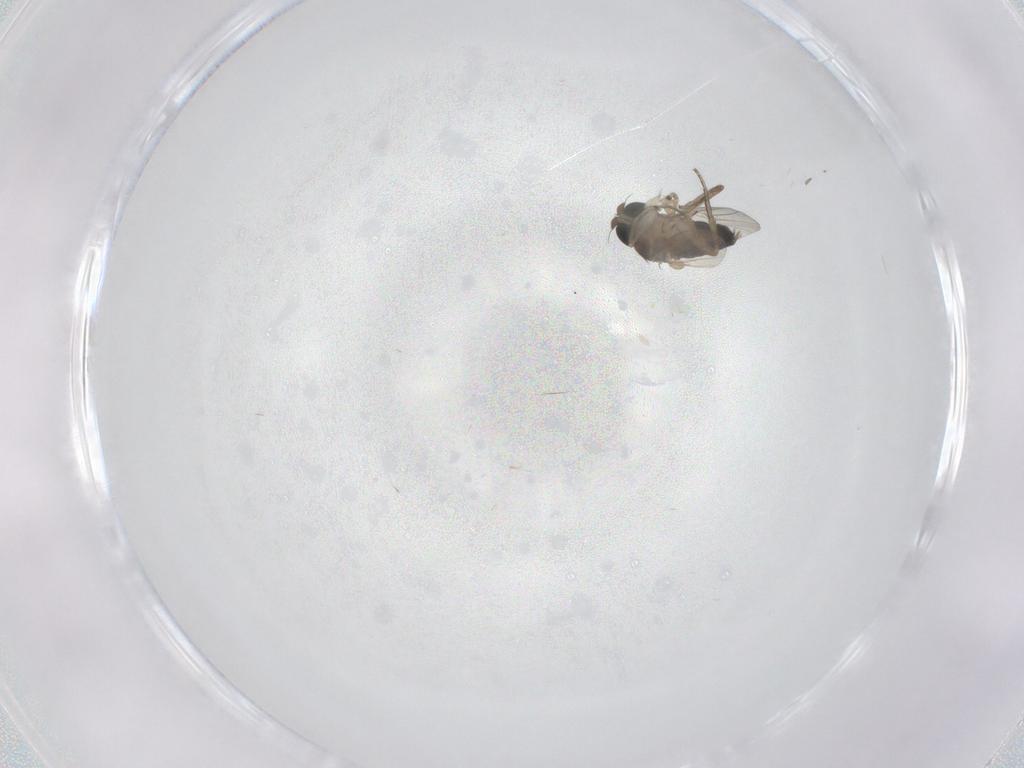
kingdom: Animalia
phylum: Arthropoda
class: Insecta
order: Diptera
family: Phoridae
